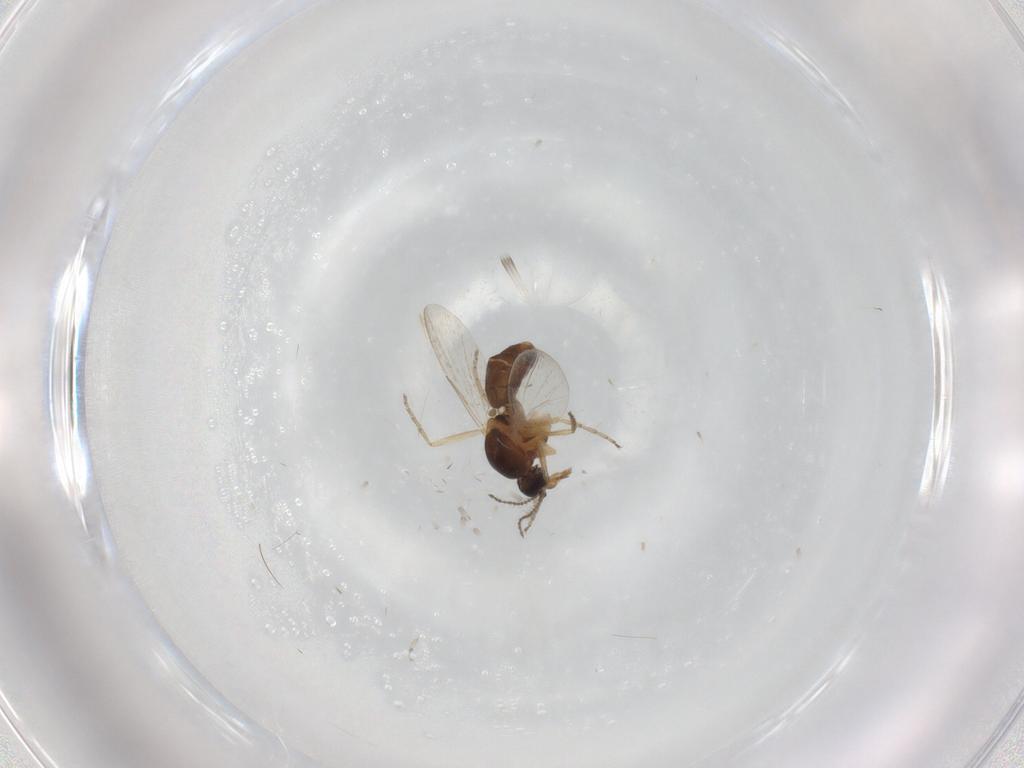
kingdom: Animalia
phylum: Arthropoda
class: Insecta
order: Diptera
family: Ceratopogonidae
